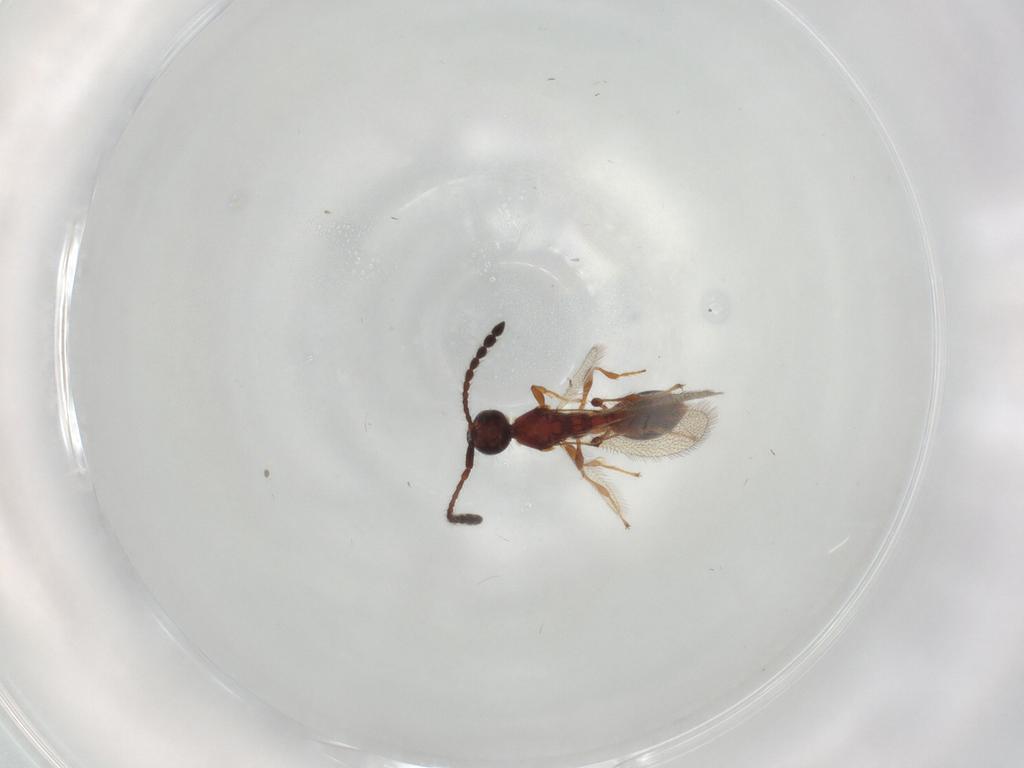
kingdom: Animalia
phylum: Arthropoda
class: Insecta
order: Hymenoptera
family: Diapriidae
